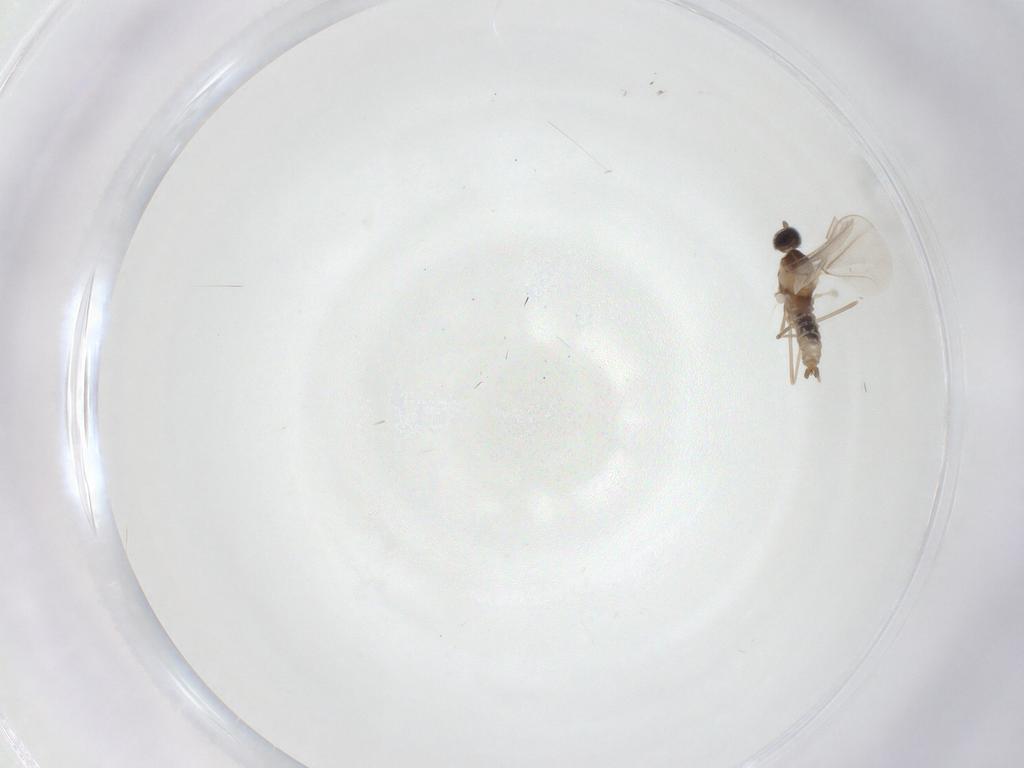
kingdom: Animalia
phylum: Arthropoda
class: Insecta
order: Diptera
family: Cecidomyiidae
